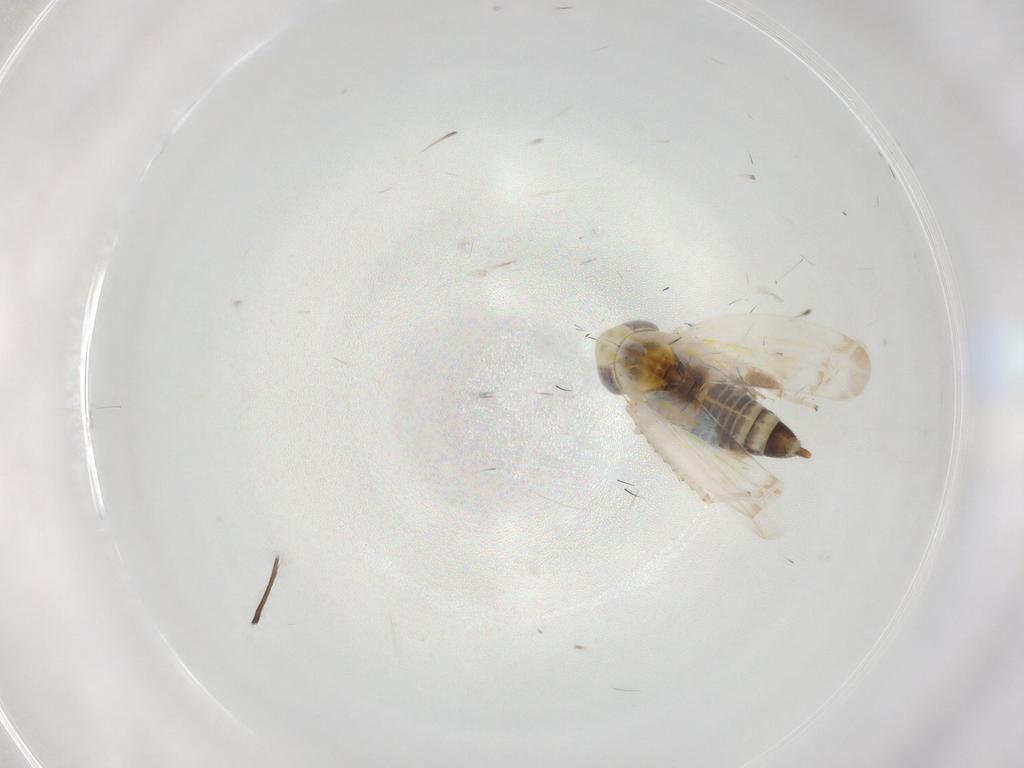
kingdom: Animalia
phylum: Arthropoda
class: Insecta
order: Hemiptera
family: Cicadellidae
